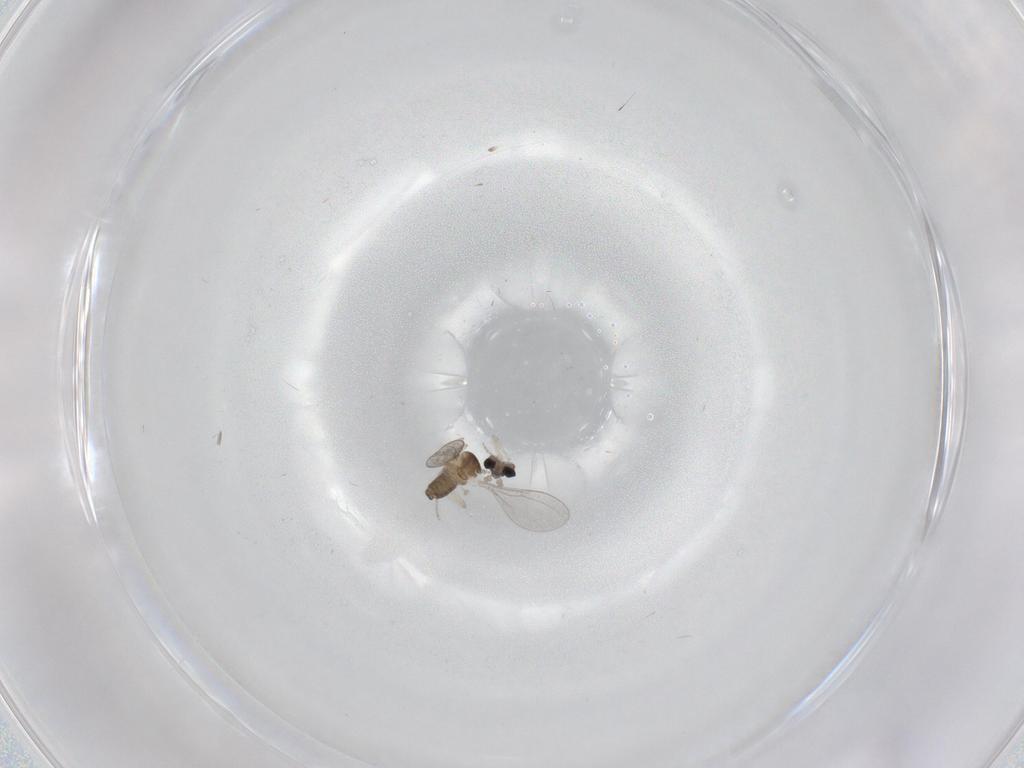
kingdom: Animalia
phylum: Arthropoda
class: Insecta
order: Diptera
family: Cecidomyiidae
